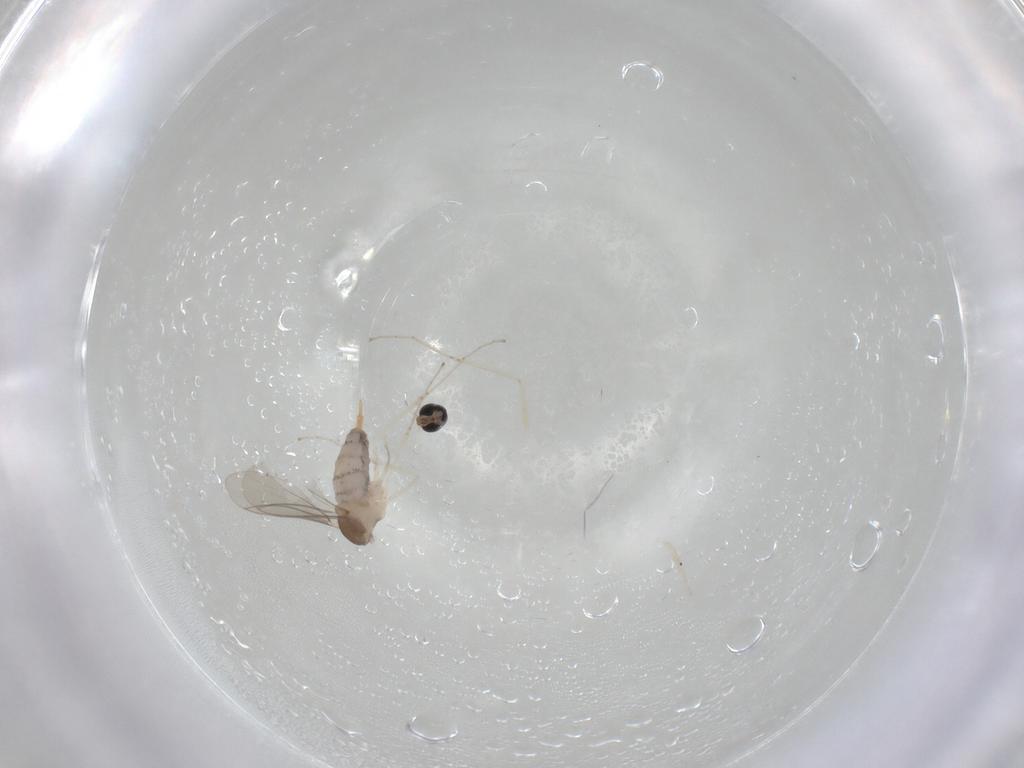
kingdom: Animalia
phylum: Arthropoda
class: Insecta
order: Diptera
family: Cecidomyiidae
